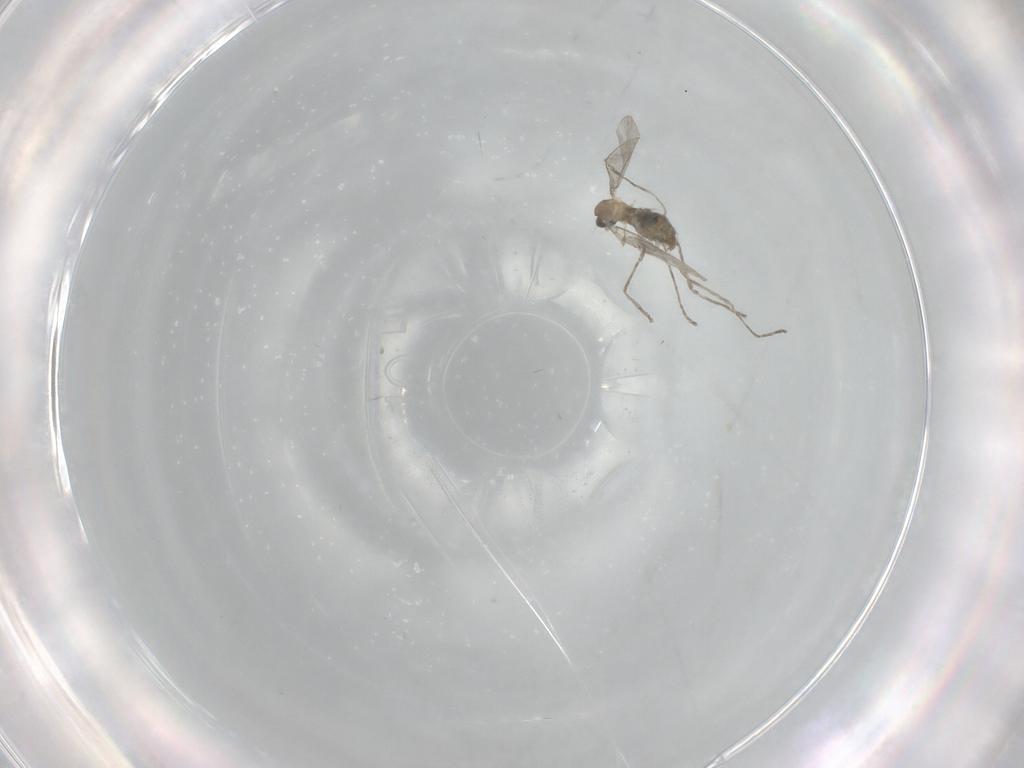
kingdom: Animalia
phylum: Arthropoda
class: Insecta
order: Diptera
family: Cecidomyiidae
